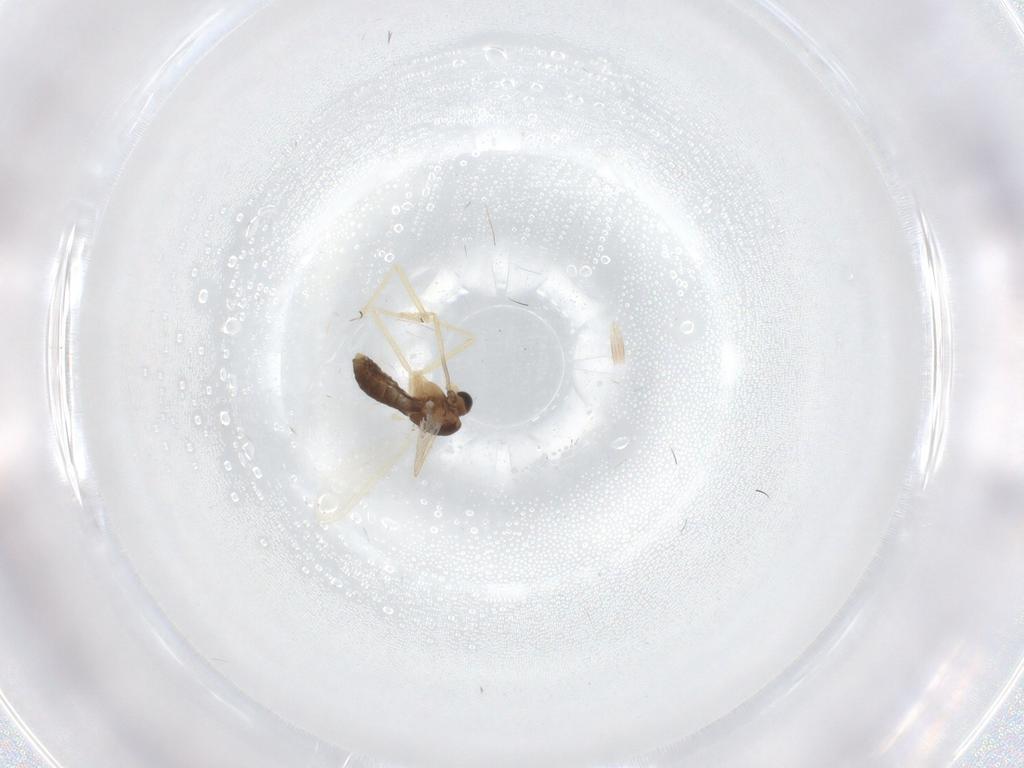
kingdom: Animalia
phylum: Arthropoda
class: Insecta
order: Diptera
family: Chironomidae
